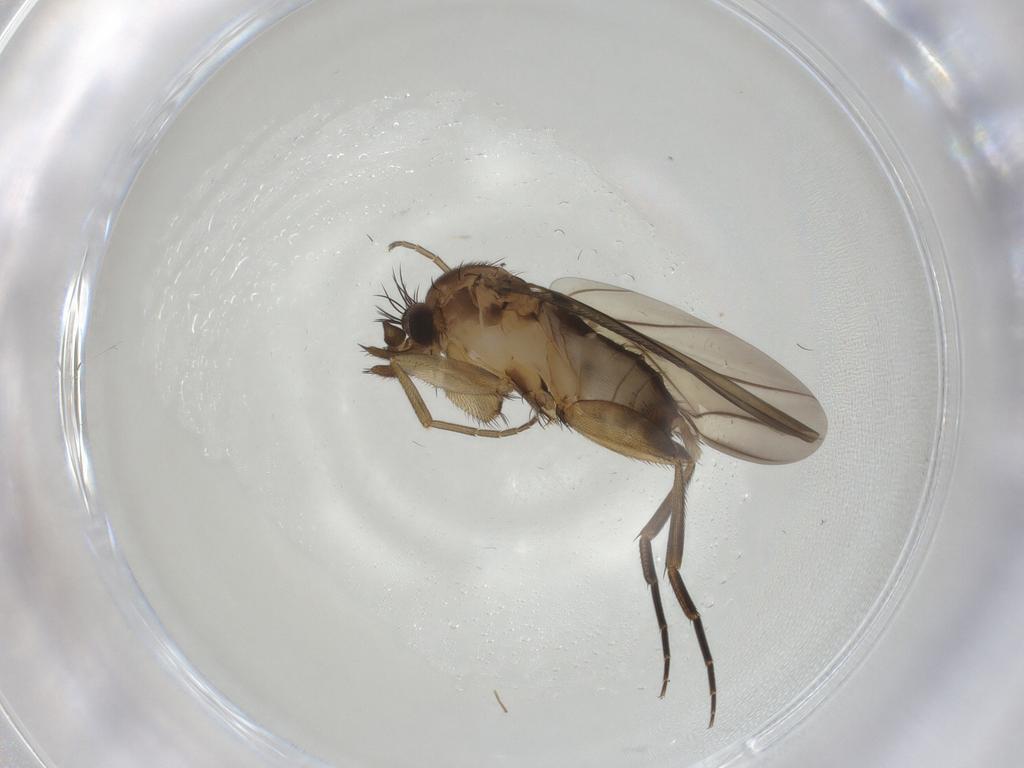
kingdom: Animalia
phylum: Arthropoda
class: Insecta
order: Diptera
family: Phoridae
